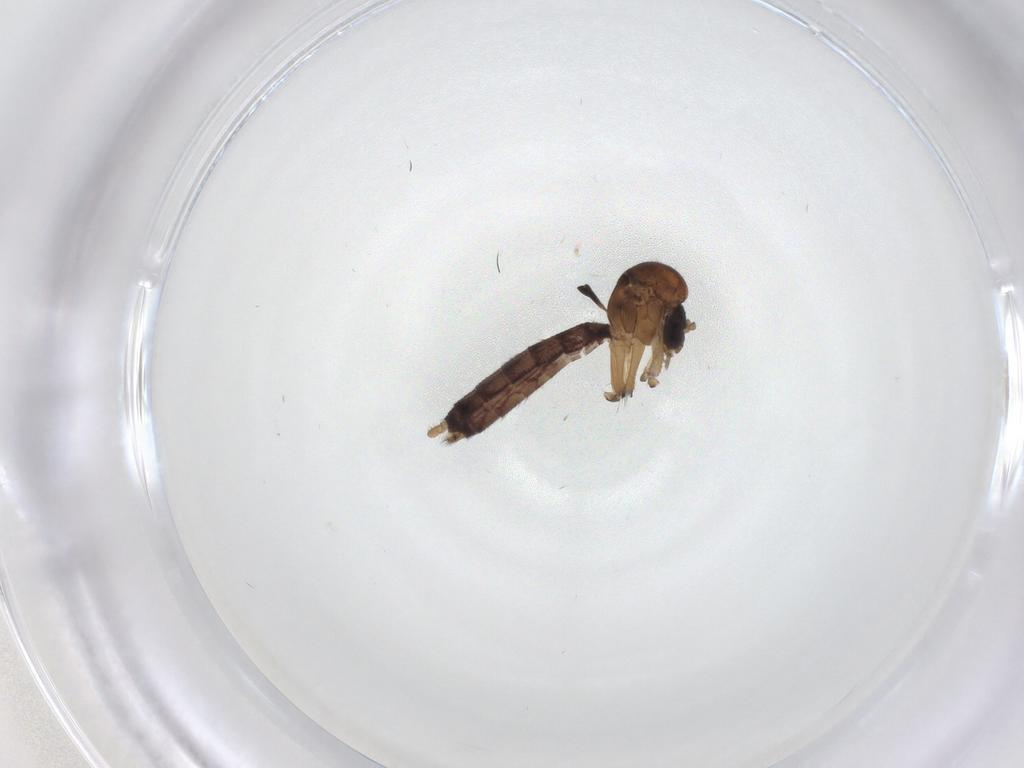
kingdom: Animalia
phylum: Arthropoda
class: Insecta
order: Diptera
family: Mycetophilidae
